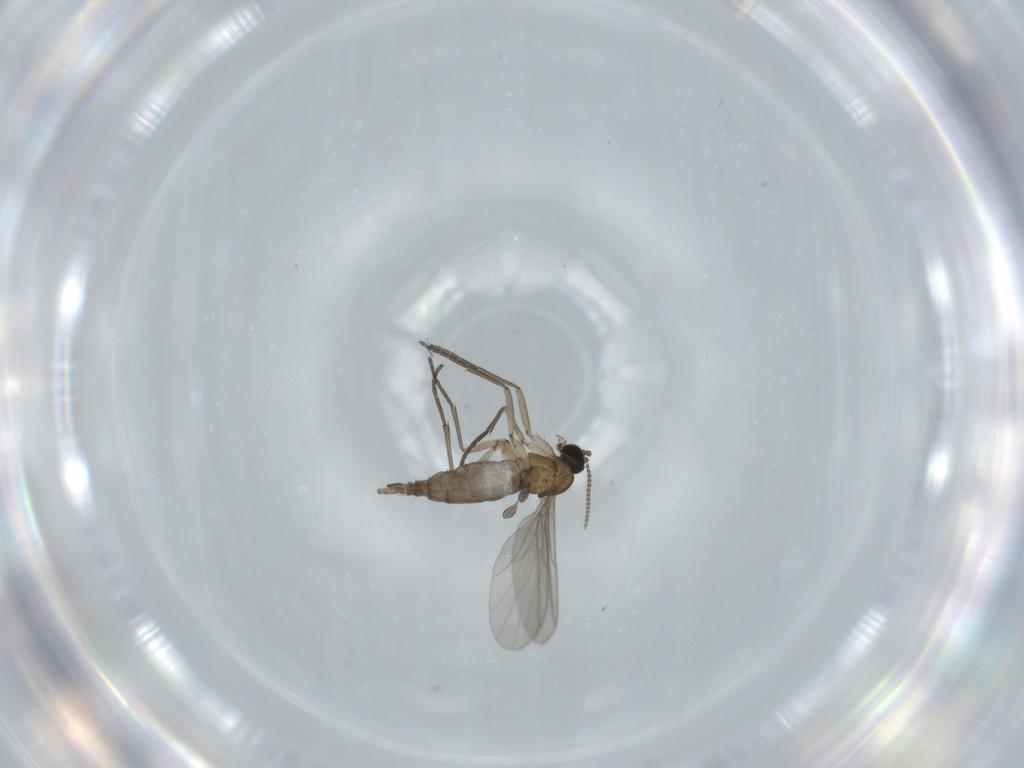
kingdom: Animalia
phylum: Arthropoda
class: Insecta
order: Diptera
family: Sciaridae
